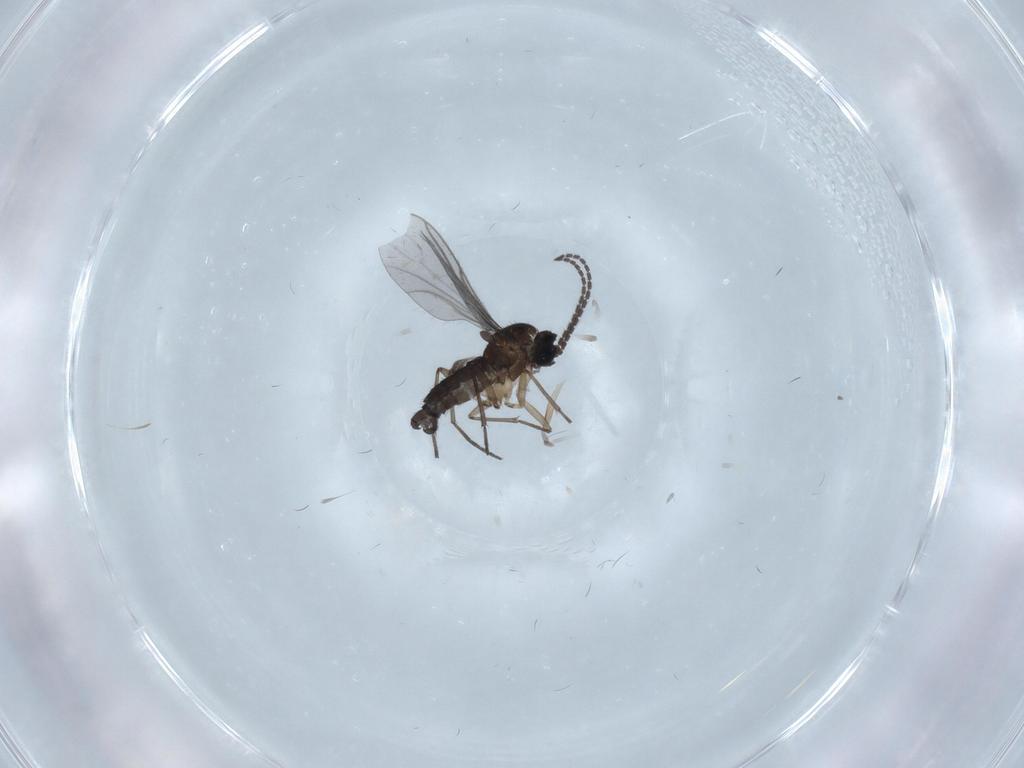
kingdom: Animalia
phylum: Arthropoda
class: Insecta
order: Diptera
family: Sciaridae
